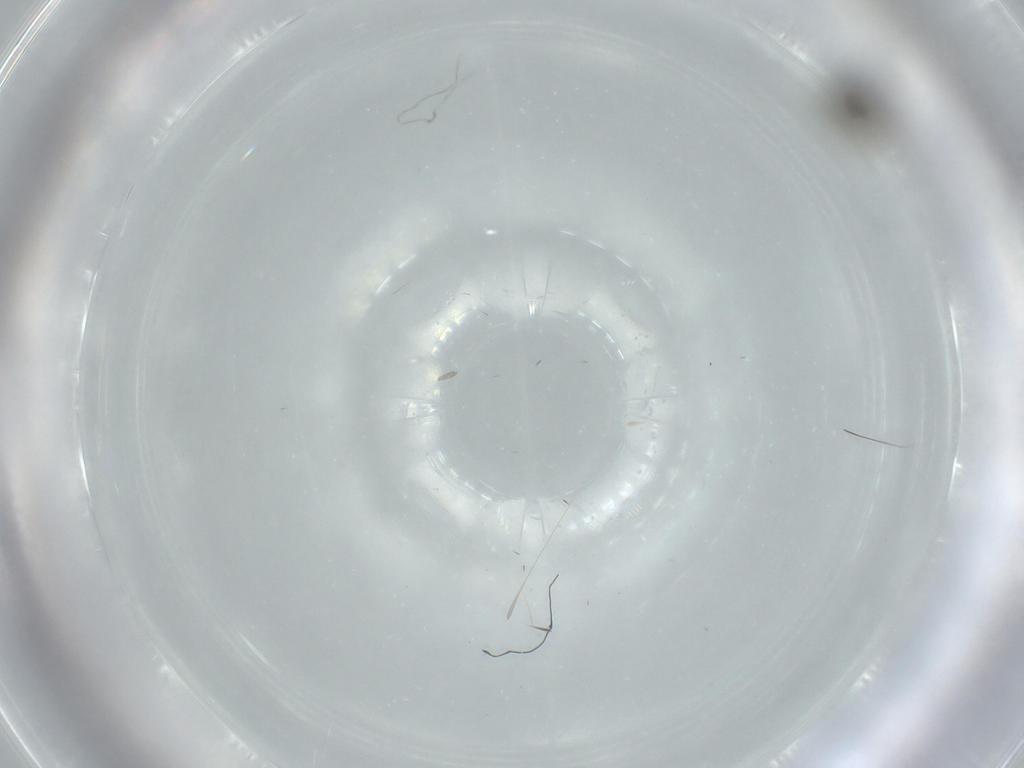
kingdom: Animalia
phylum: Arthropoda
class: Insecta
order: Diptera
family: Psychodidae
